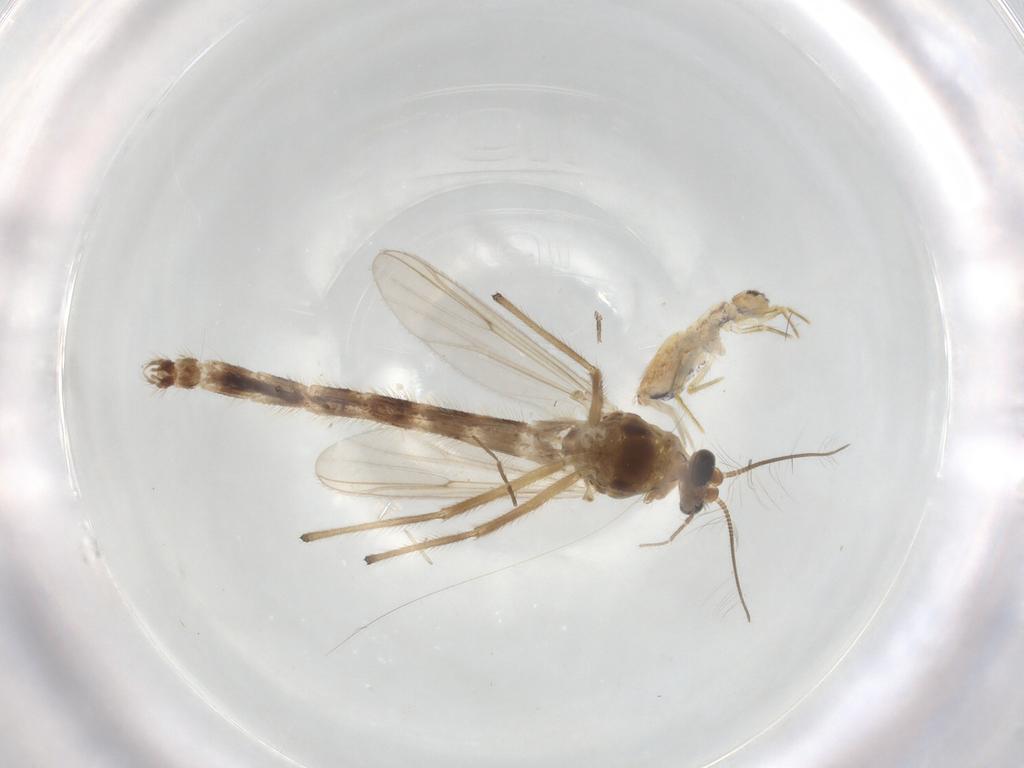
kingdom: Animalia
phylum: Arthropoda
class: Insecta
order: Diptera
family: Chironomidae
